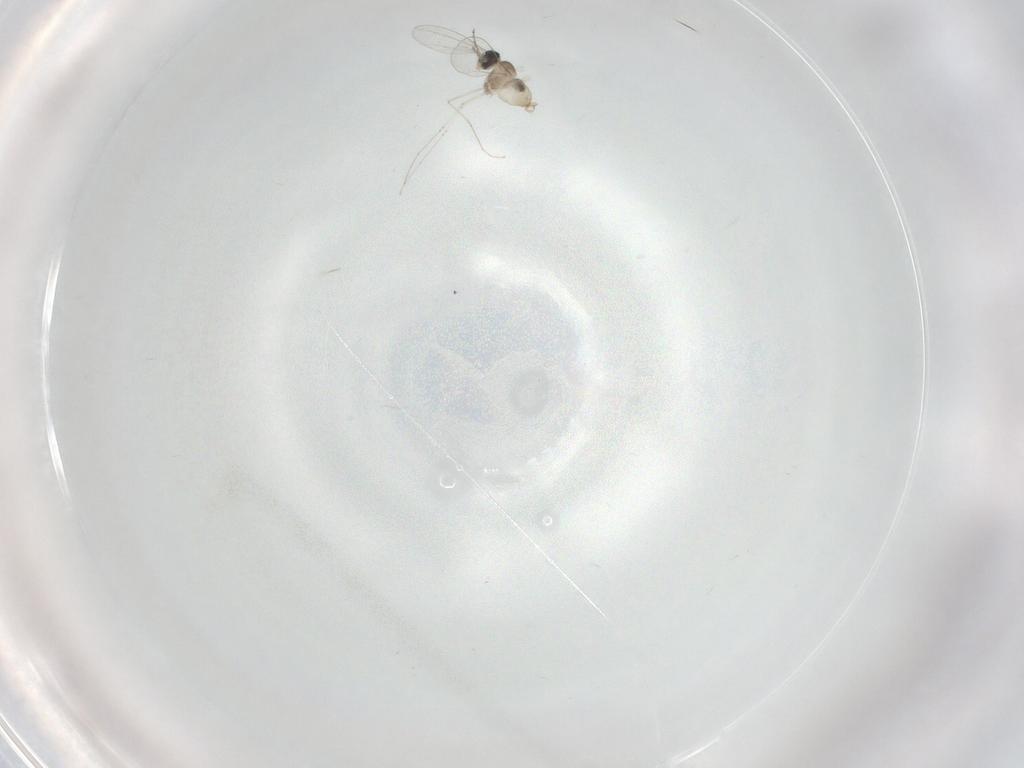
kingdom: Animalia
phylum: Arthropoda
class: Insecta
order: Diptera
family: Cecidomyiidae
